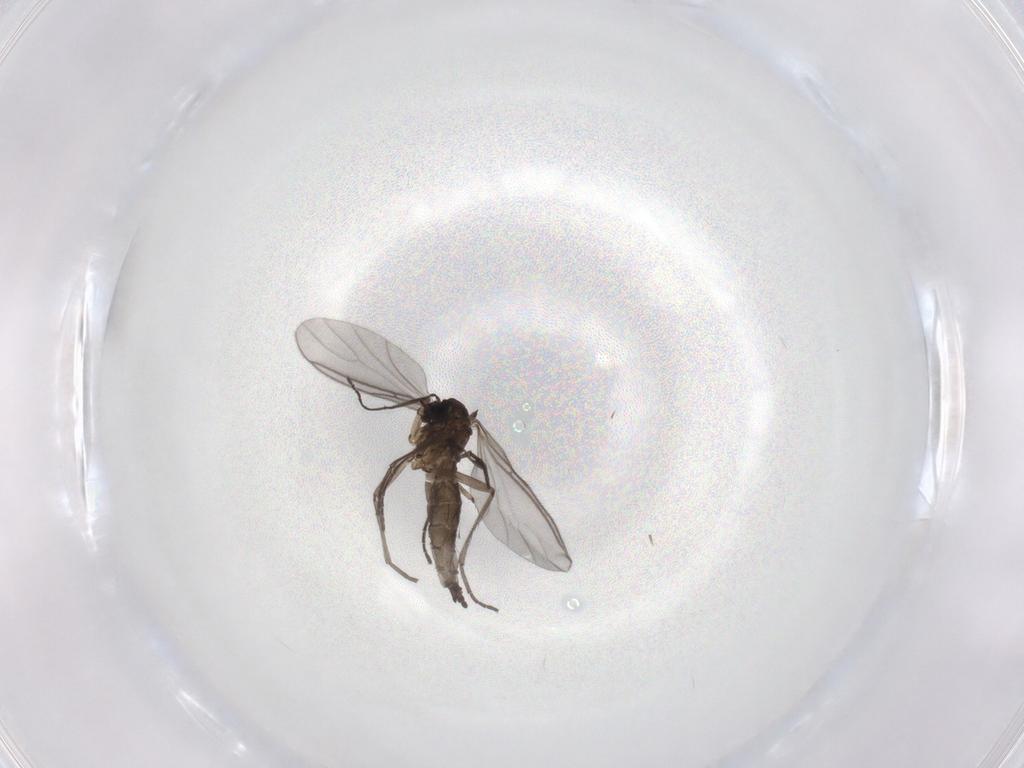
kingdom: Animalia
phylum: Arthropoda
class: Insecta
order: Diptera
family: Sciaridae
